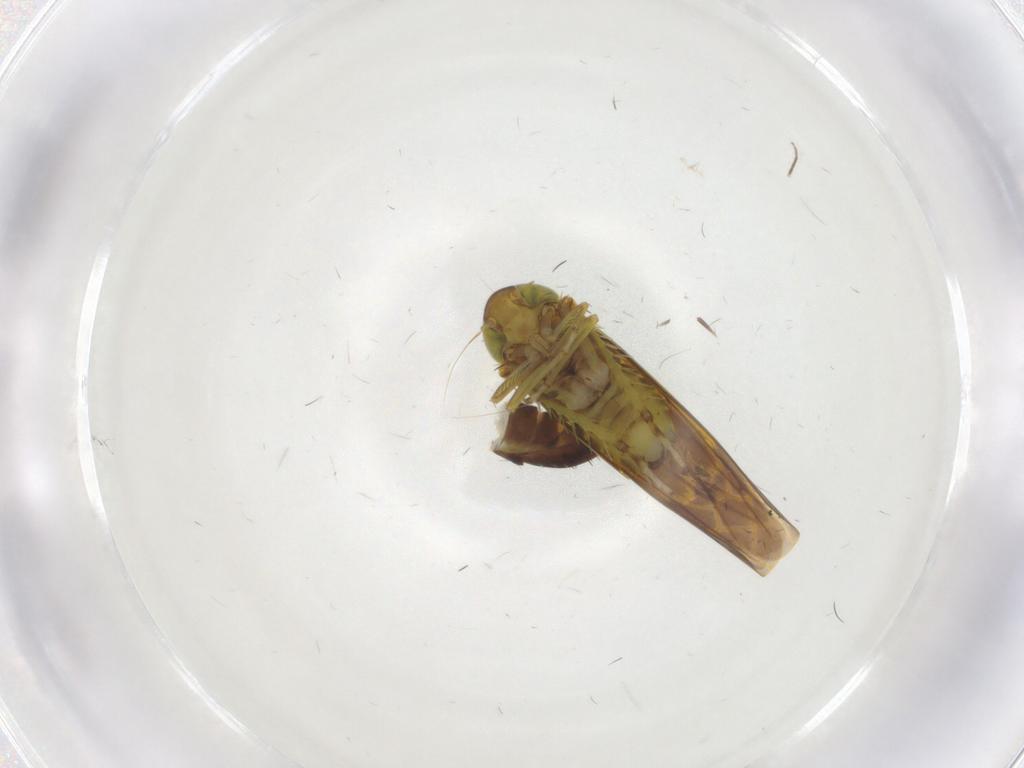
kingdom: Animalia
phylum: Arthropoda
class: Insecta
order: Hemiptera
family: Cicadellidae
